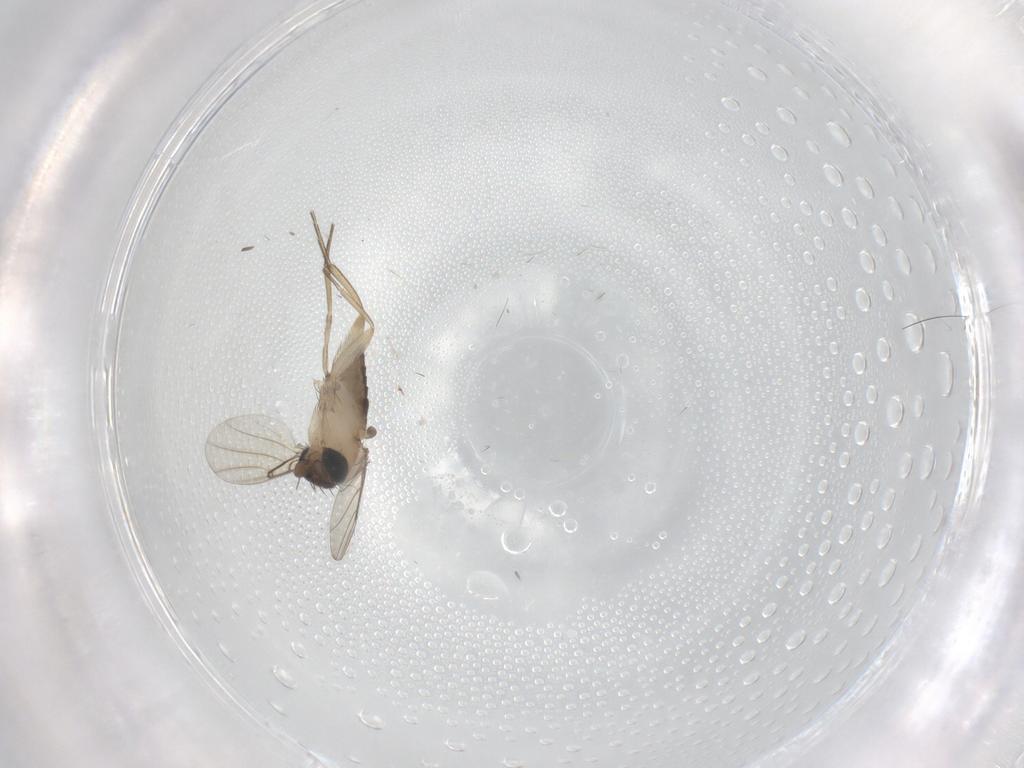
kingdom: Animalia
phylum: Arthropoda
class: Insecta
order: Diptera
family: Phoridae
